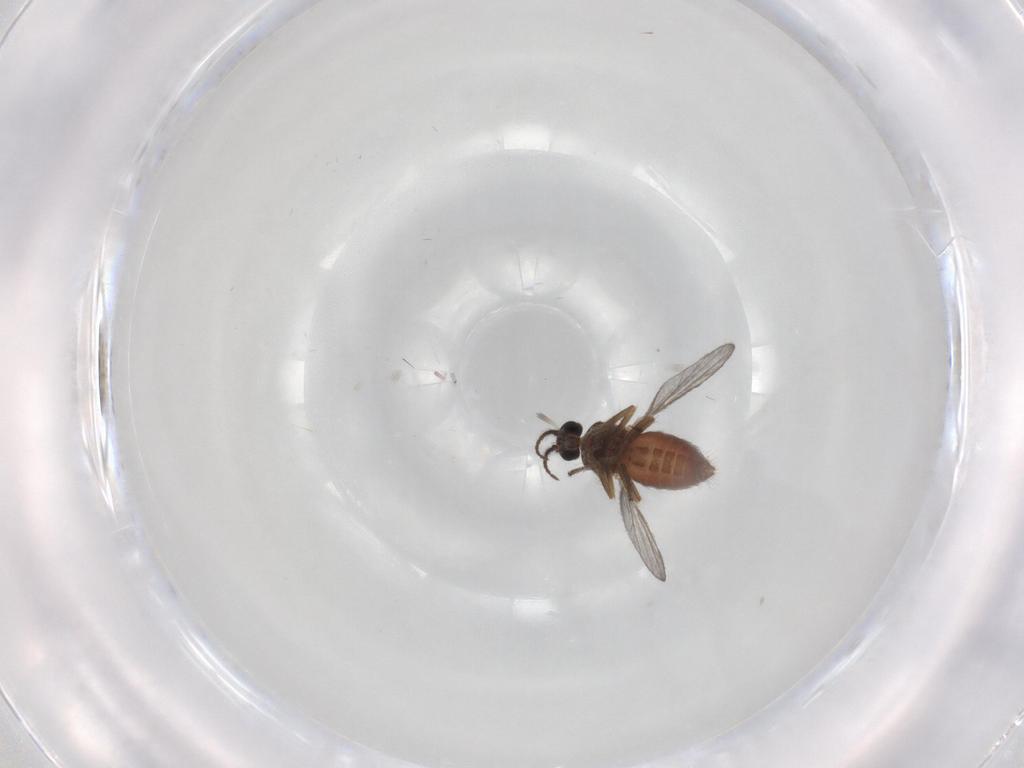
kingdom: Animalia
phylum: Arthropoda
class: Insecta
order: Diptera
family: Ceratopogonidae
